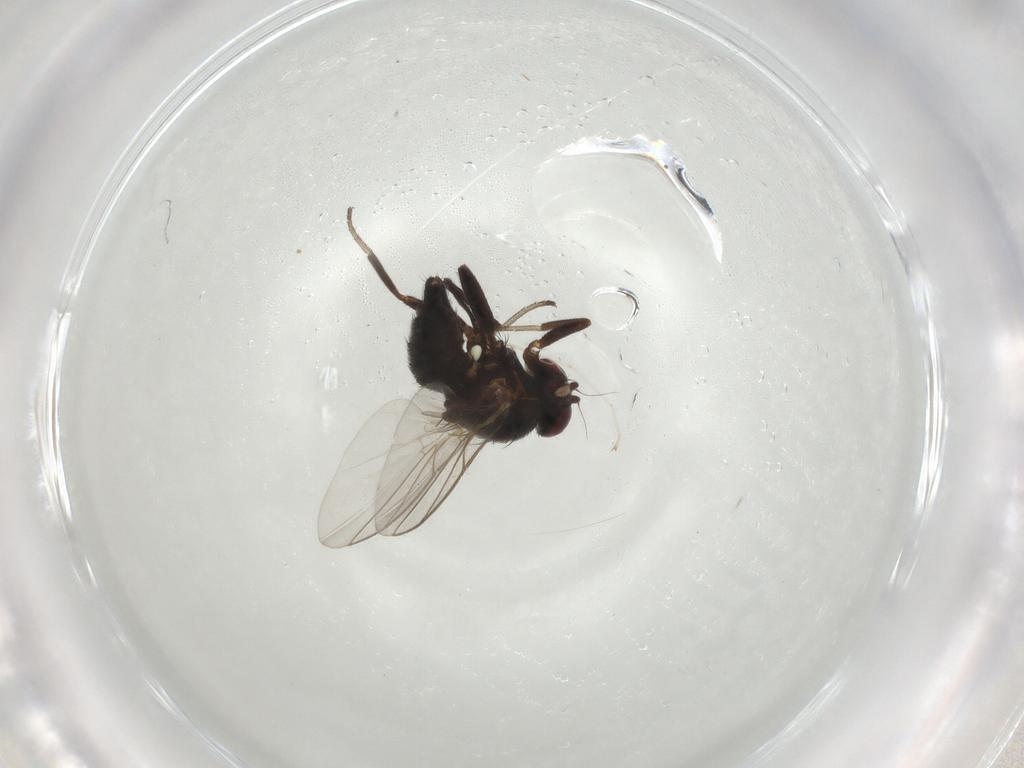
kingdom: Animalia
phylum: Arthropoda
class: Insecta
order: Diptera
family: Agromyzidae
